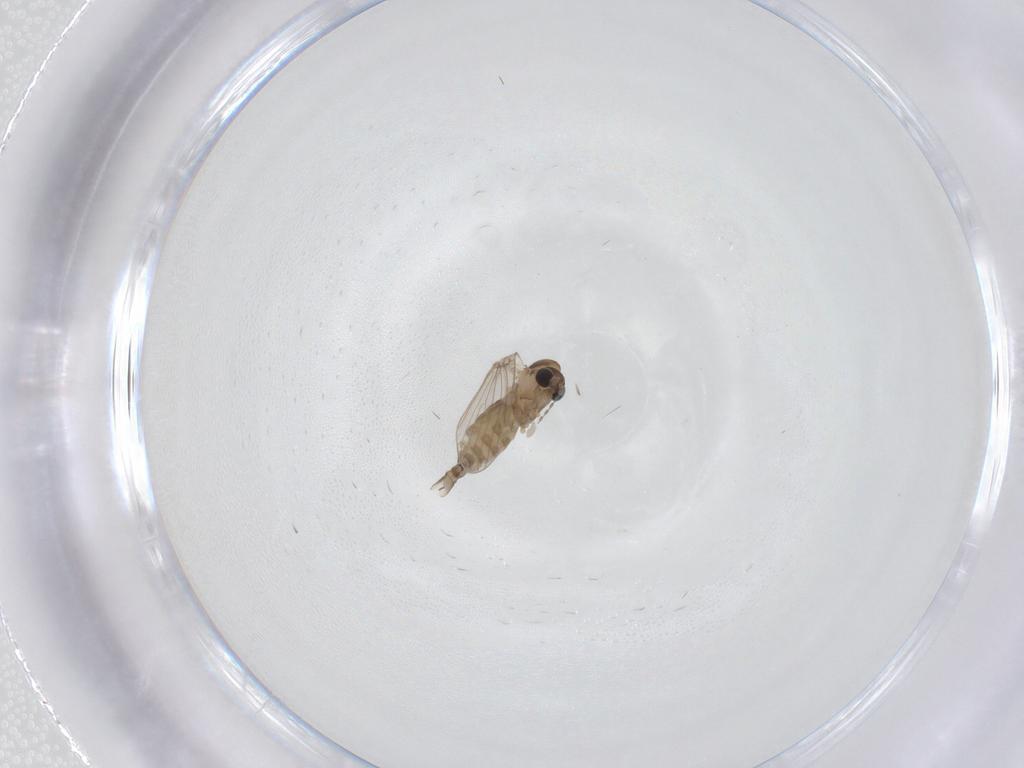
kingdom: Animalia
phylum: Arthropoda
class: Insecta
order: Diptera
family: Psychodidae
